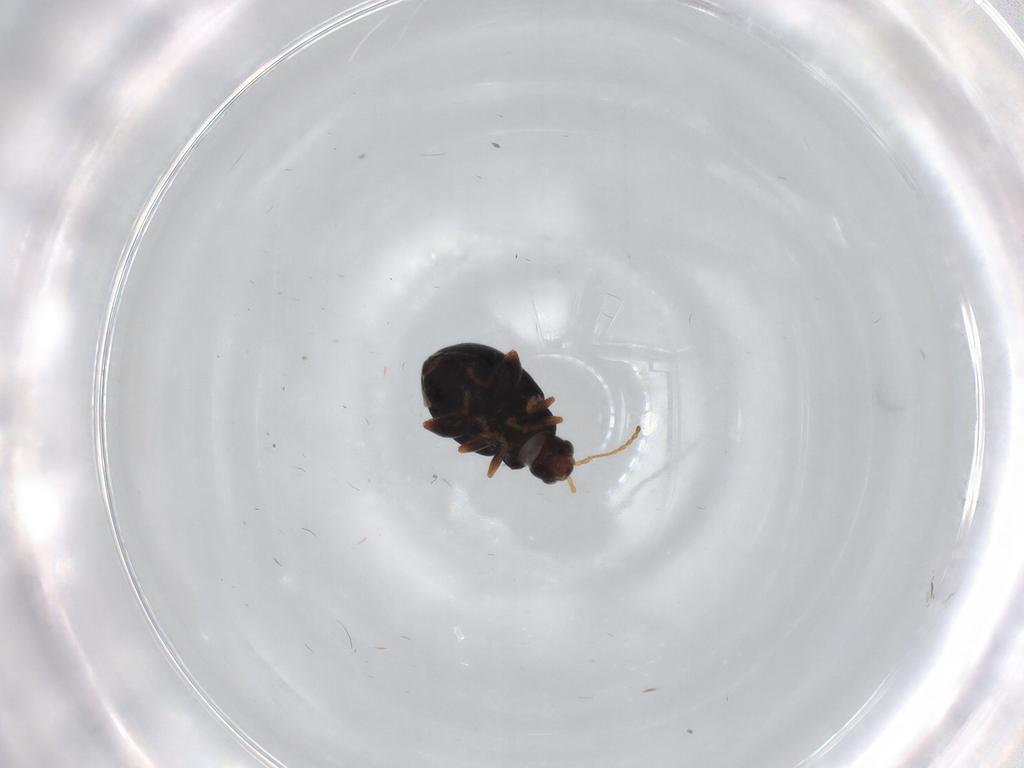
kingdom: Animalia
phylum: Arthropoda
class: Insecta
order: Coleoptera
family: Chrysomelidae
